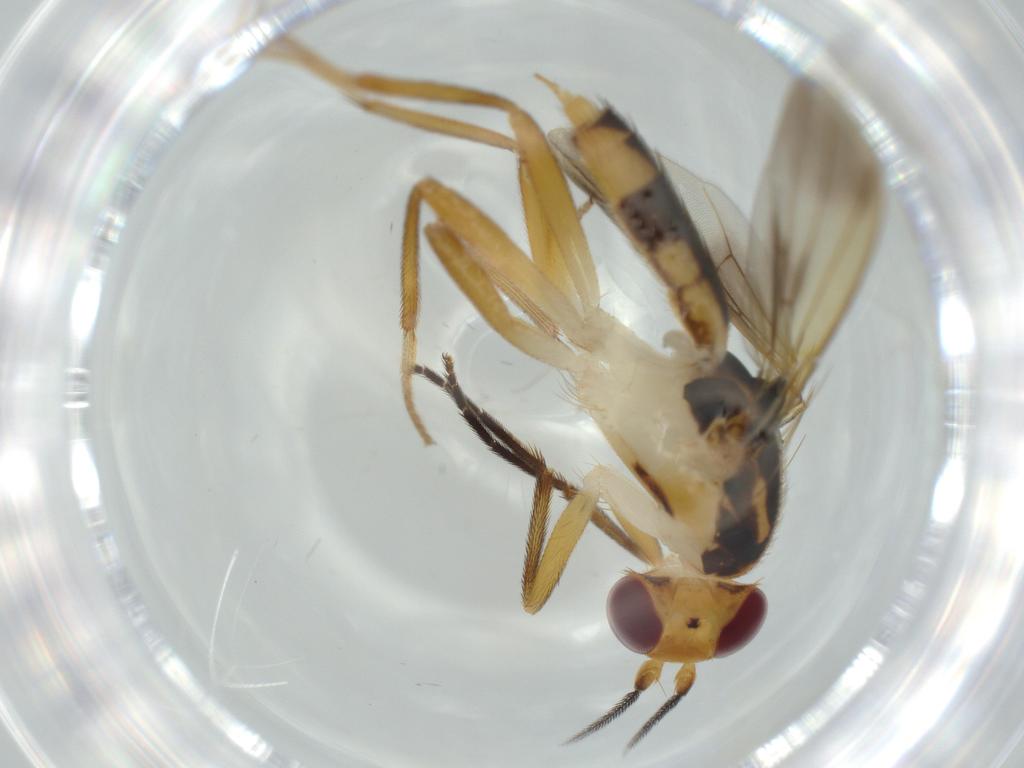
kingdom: Animalia
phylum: Arthropoda
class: Insecta
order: Diptera
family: Clusiidae
